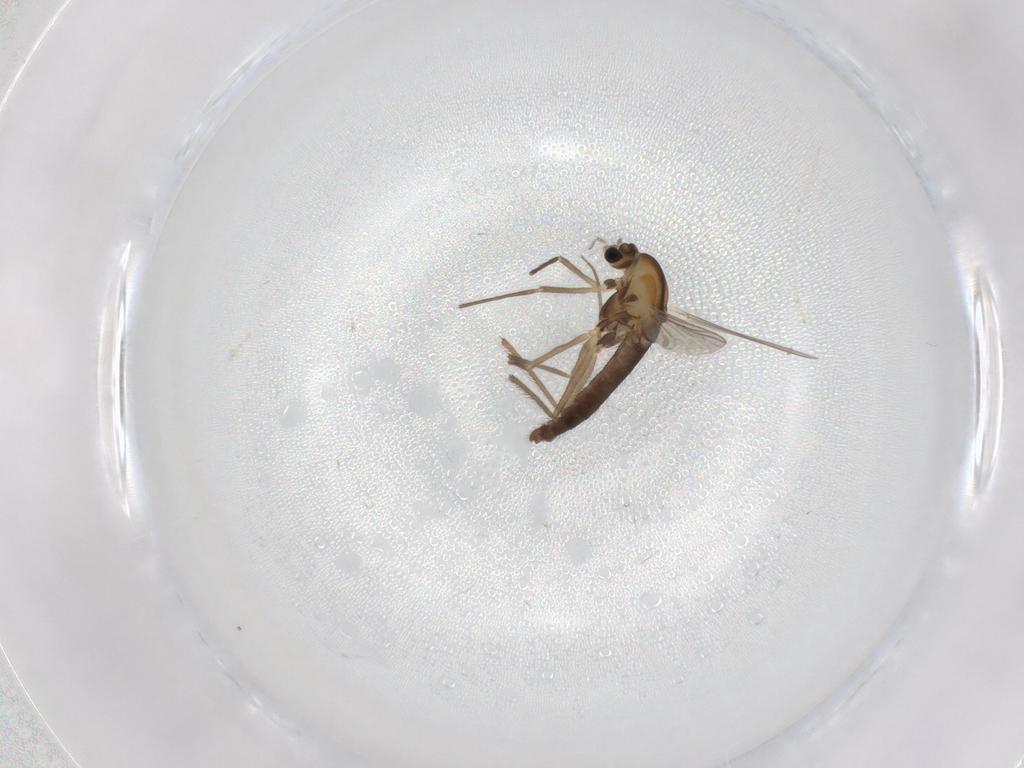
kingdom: Animalia
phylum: Arthropoda
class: Insecta
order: Diptera
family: Chironomidae
